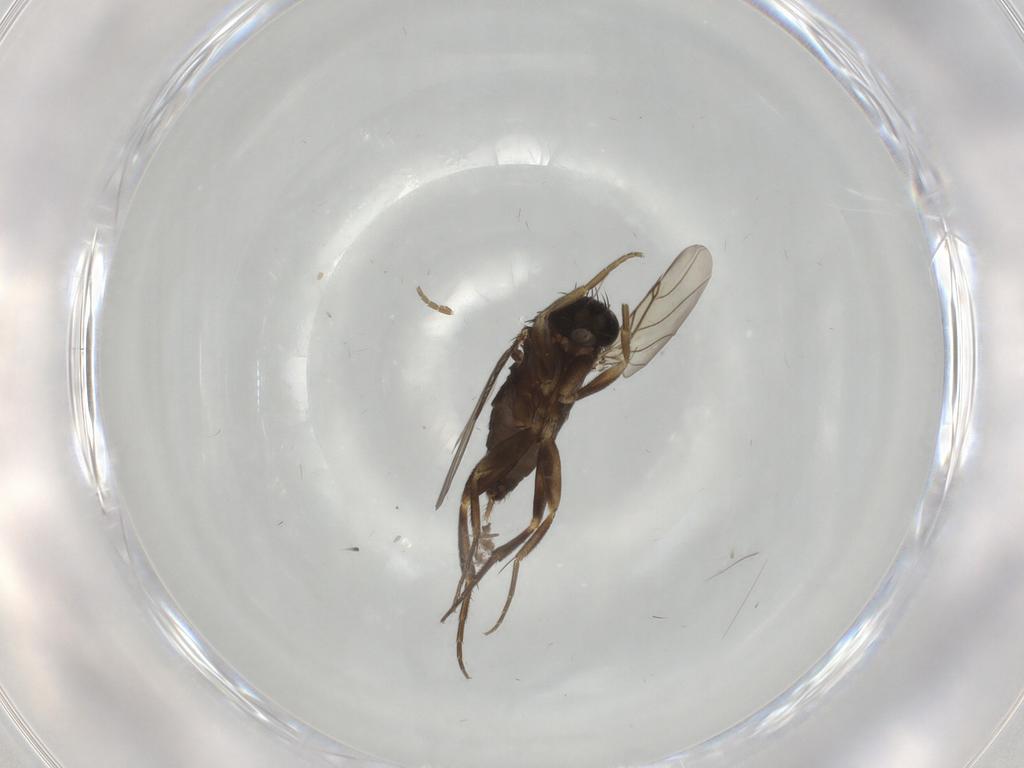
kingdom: Animalia
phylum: Arthropoda
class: Insecta
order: Diptera
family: Phoridae
